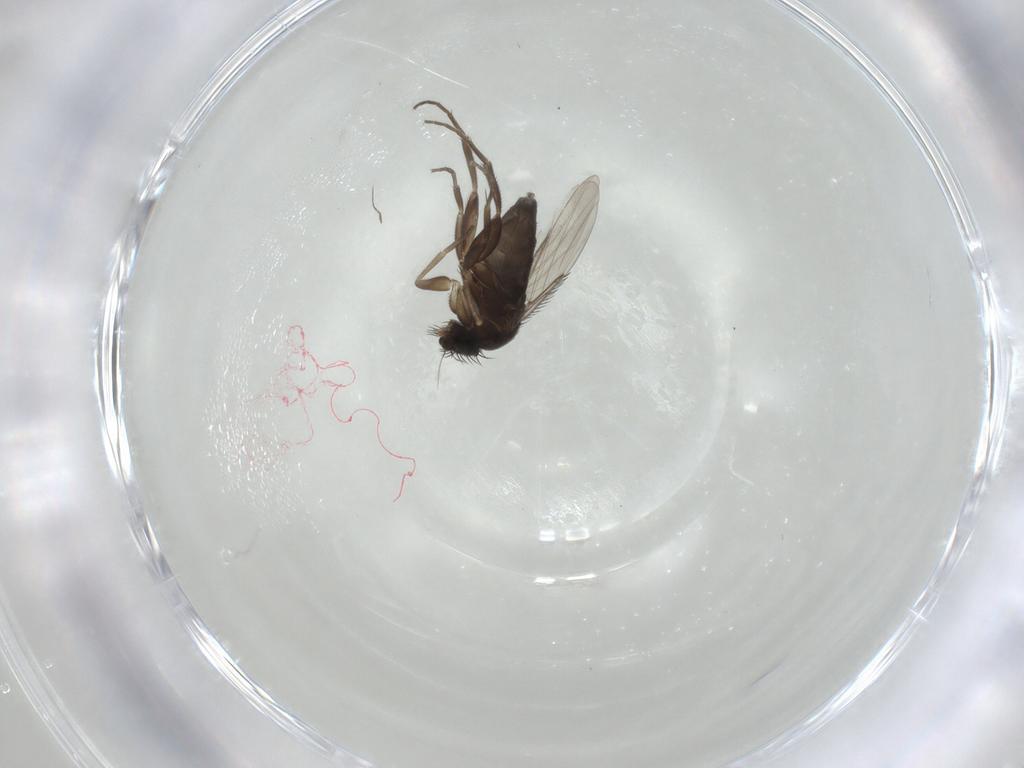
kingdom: Animalia
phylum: Arthropoda
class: Insecta
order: Diptera
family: Phoridae
